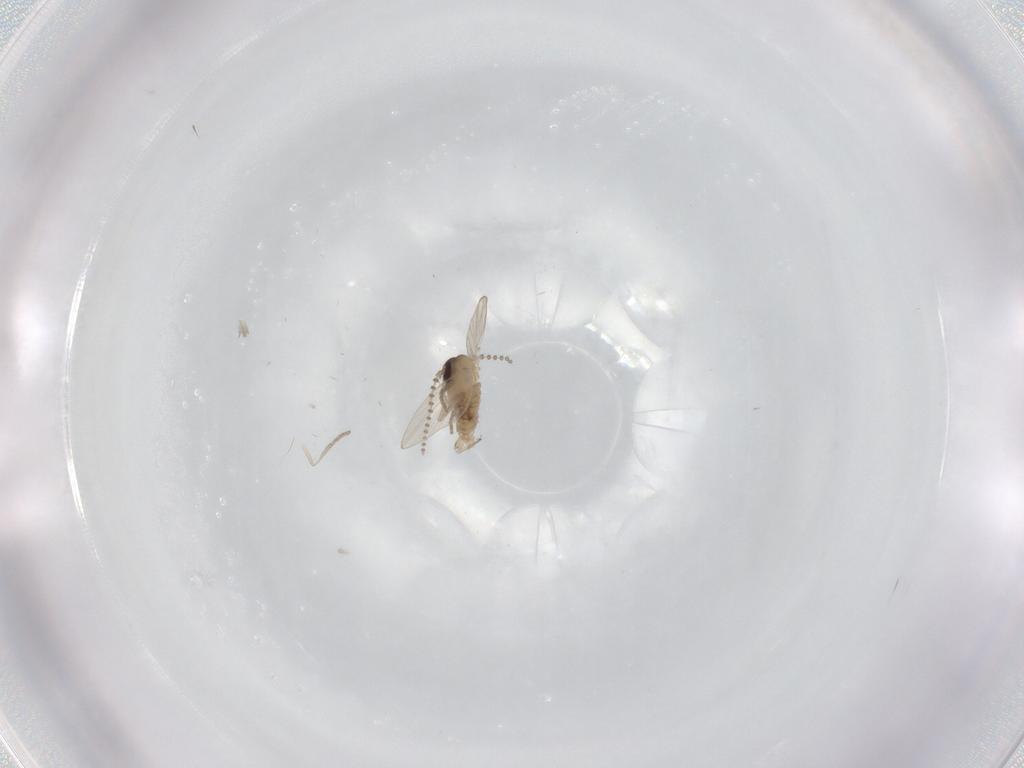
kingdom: Animalia
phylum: Arthropoda
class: Insecta
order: Diptera
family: Psychodidae
